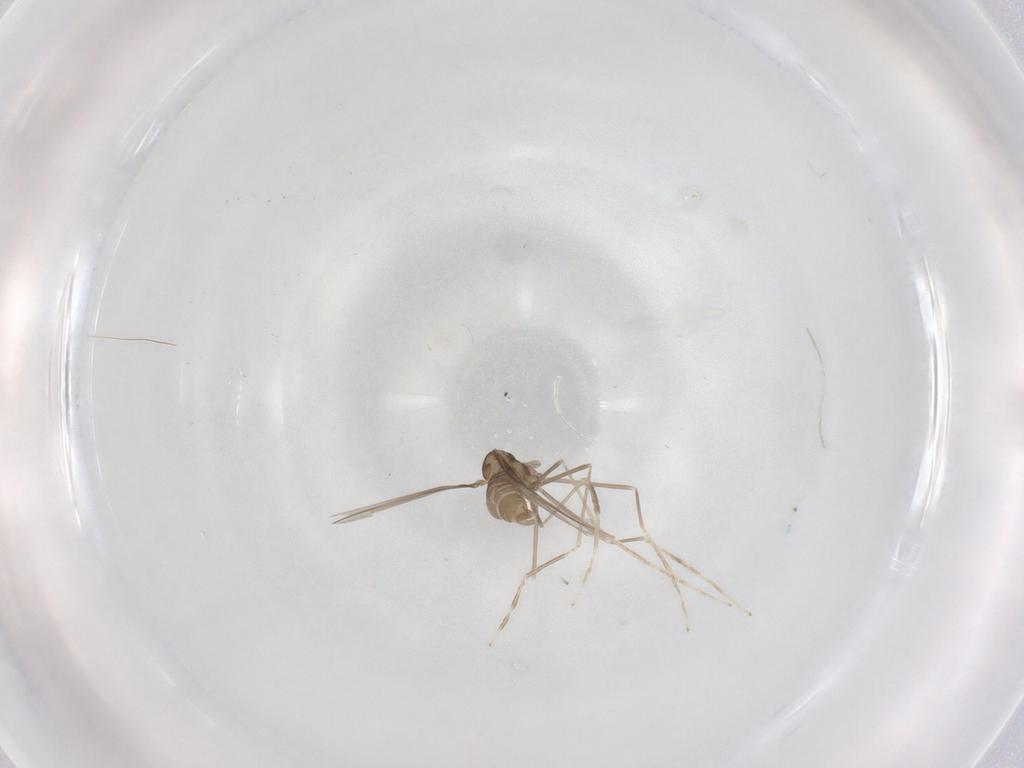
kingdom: Animalia
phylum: Arthropoda
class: Insecta
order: Diptera
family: Cecidomyiidae
